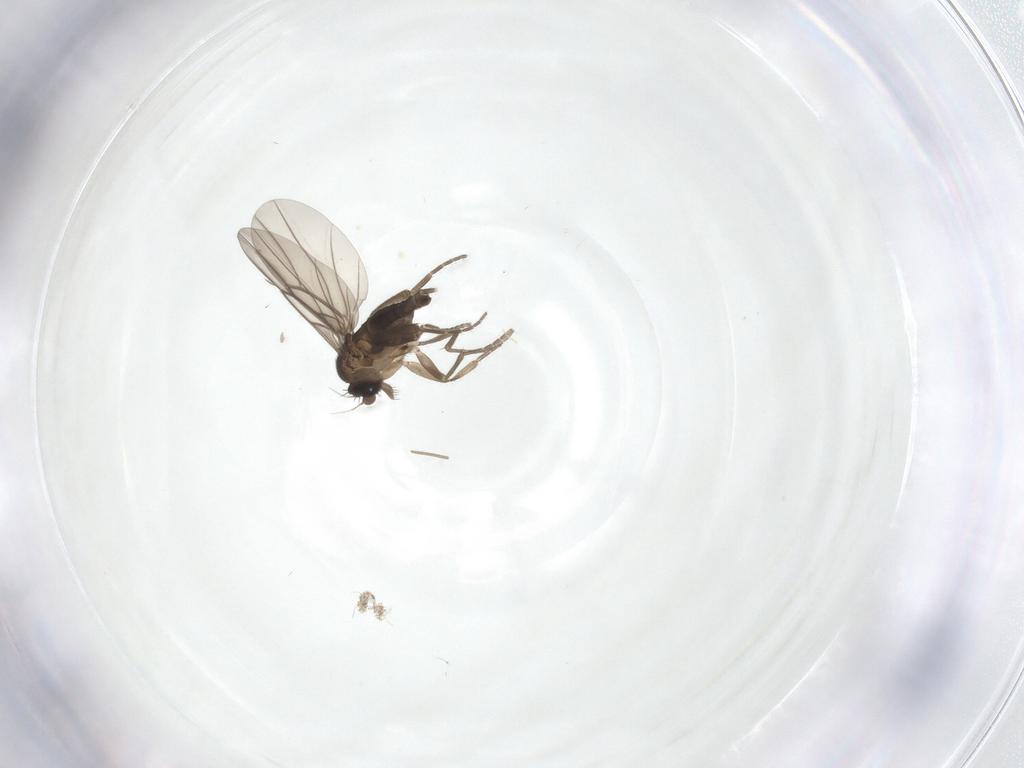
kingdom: Animalia
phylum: Arthropoda
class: Insecta
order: Diptera
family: Phoridae
